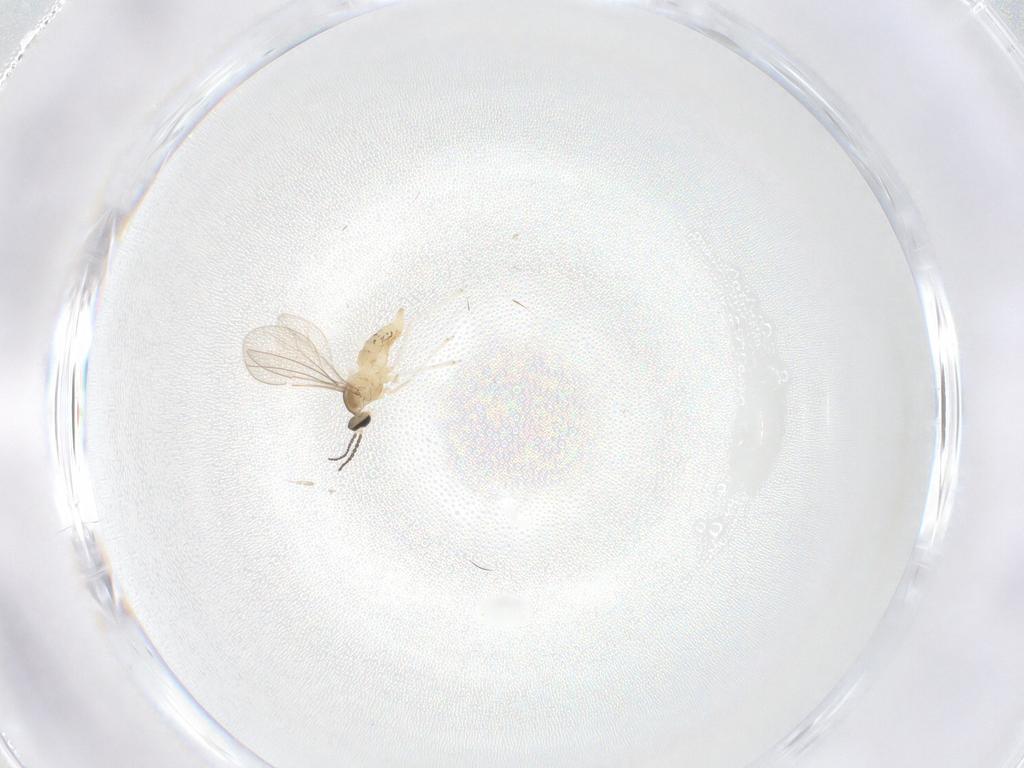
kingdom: Animalia
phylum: Arthropoda
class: Insecta
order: Diptera
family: Cecidomyiidae
